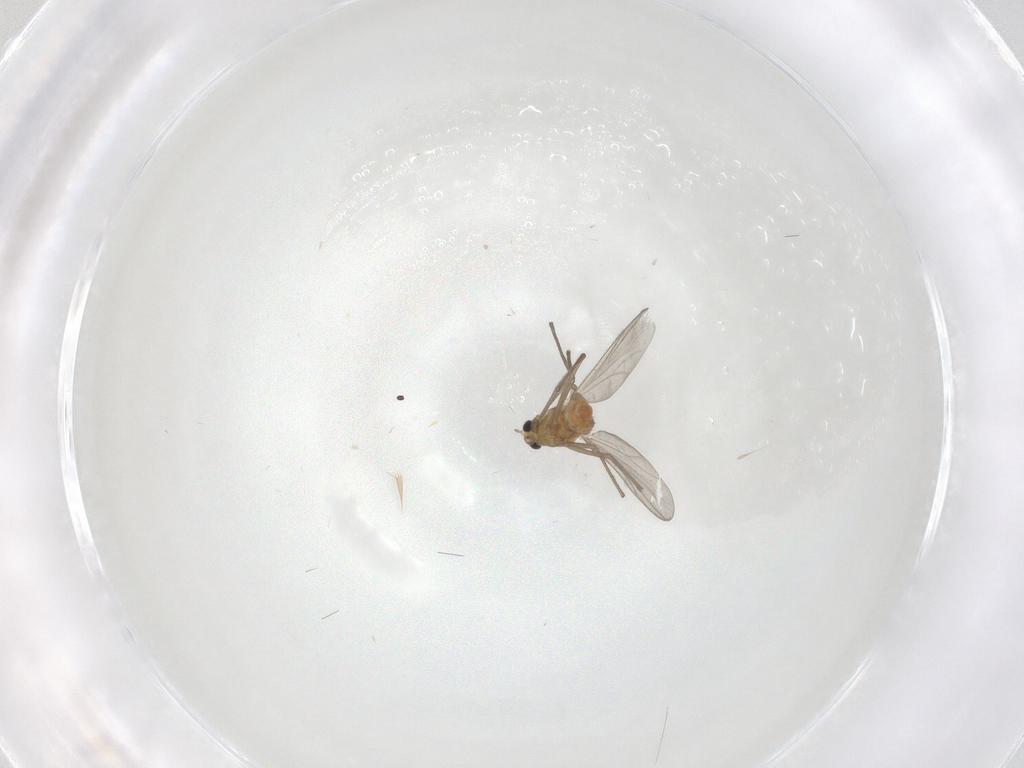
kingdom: Animalia
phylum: Arthropoda
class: Insecta
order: Diptera
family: Chironomidae
